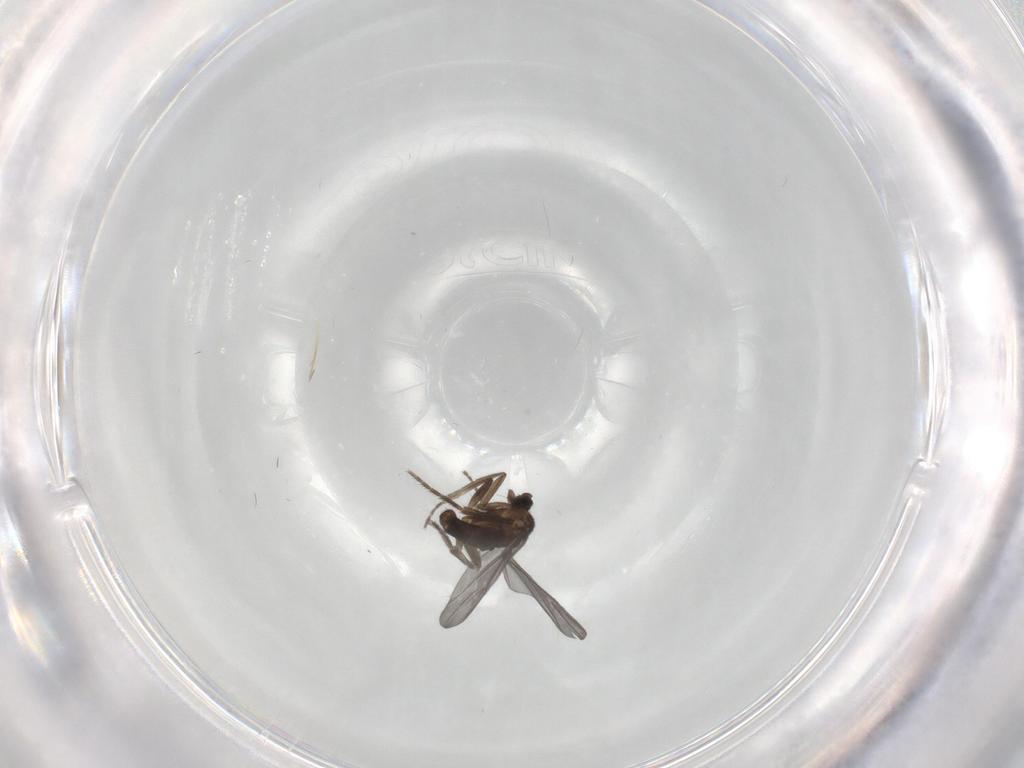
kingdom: Animalia
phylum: Arthropoda
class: Insecta
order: Diptera
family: Phoridae
